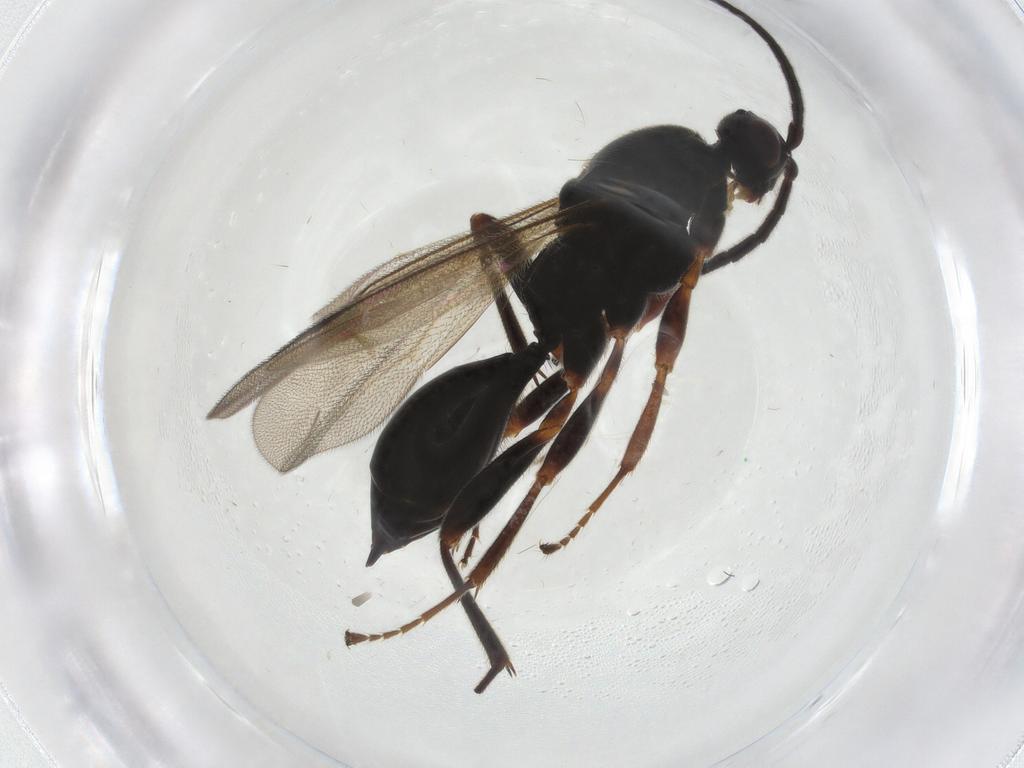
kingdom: Animalia
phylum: Arthropoda
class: Insecta
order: Hymenoptera
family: Proctotrupidae
